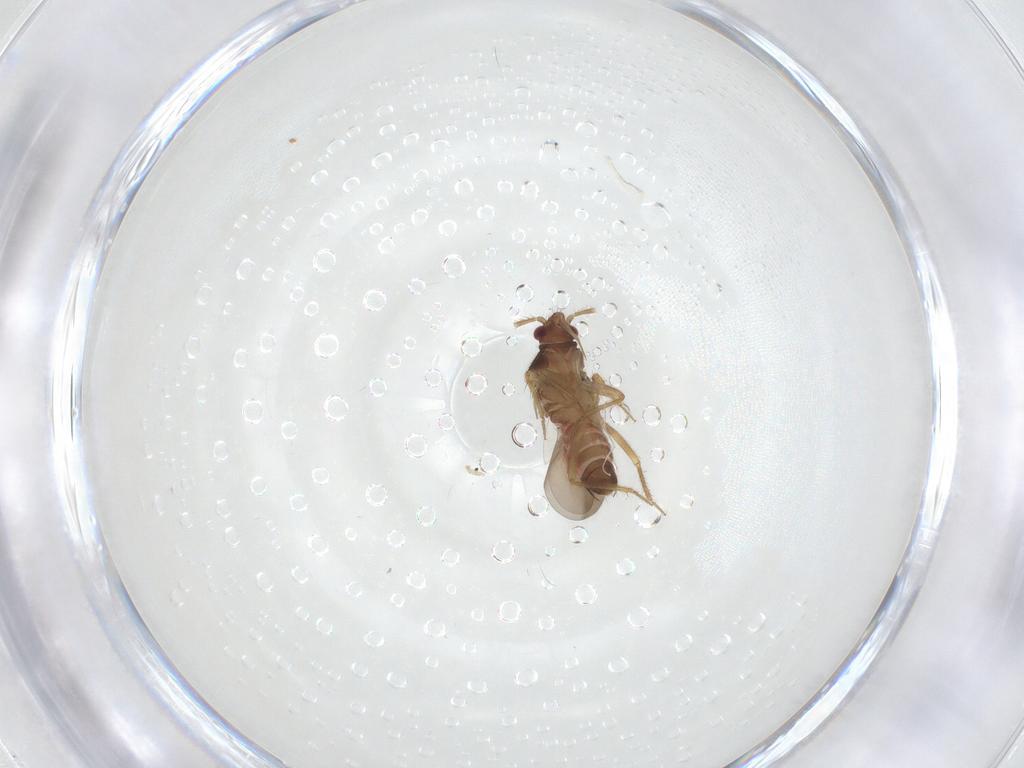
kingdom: Animalia
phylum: Arthropoda
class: Insecta
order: Hemiptera
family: Ceratocombidae
